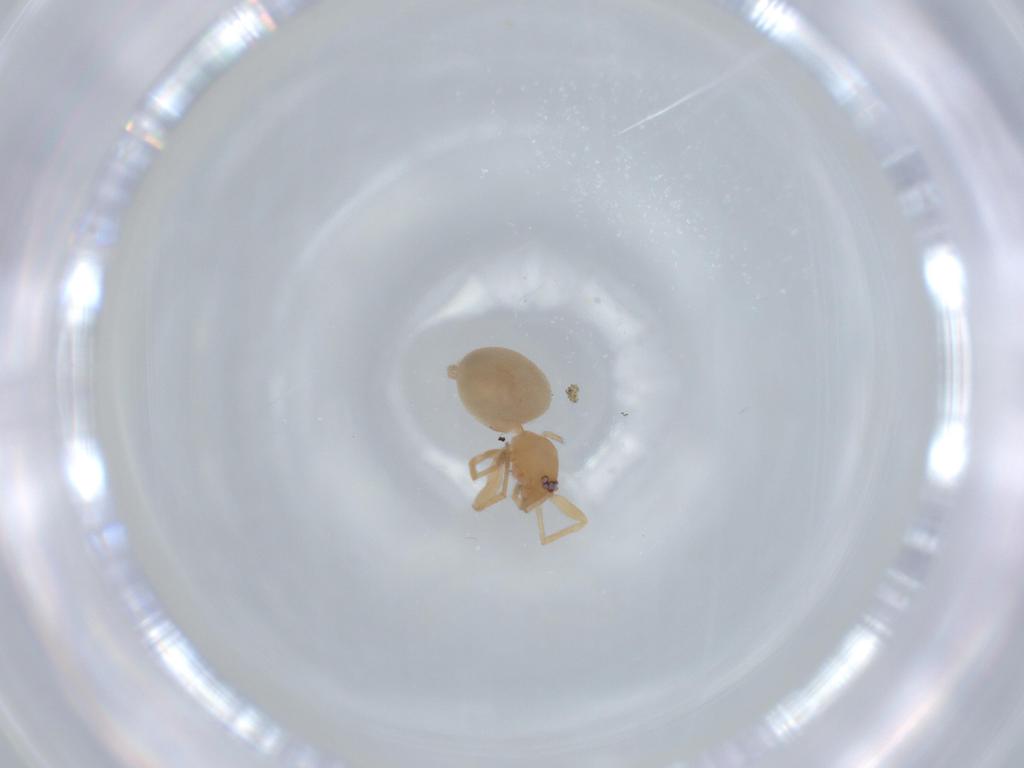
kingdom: Animalia
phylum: Arthropoda
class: Arachnida
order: Araneae
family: Oonopidae
